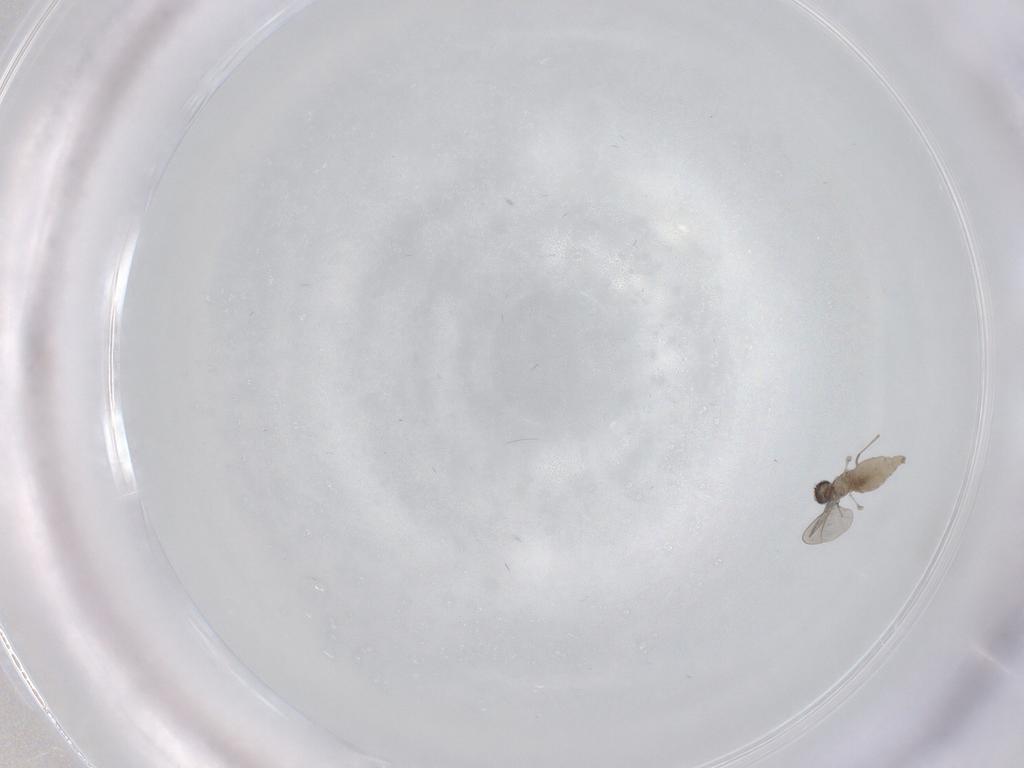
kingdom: Animalia
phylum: Arthropoda
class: Insecta
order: Diptera
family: Cecidomyiidae
